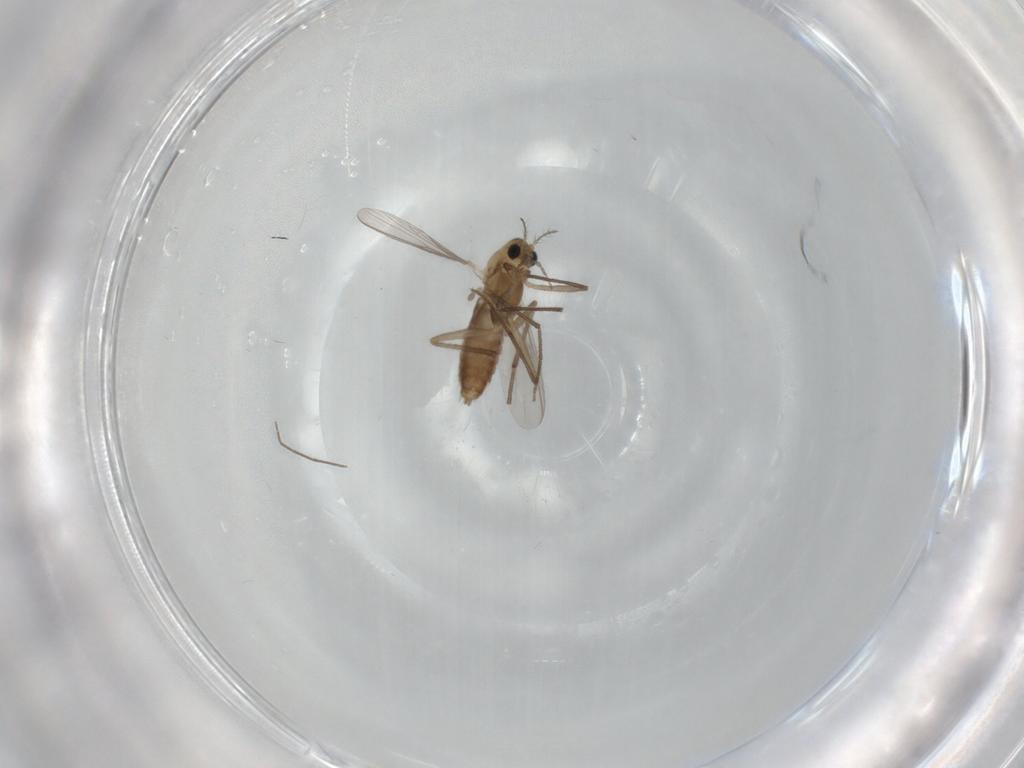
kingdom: Animalia
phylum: Arthropoda
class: Insecta
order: Diptera
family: Chironomidae
